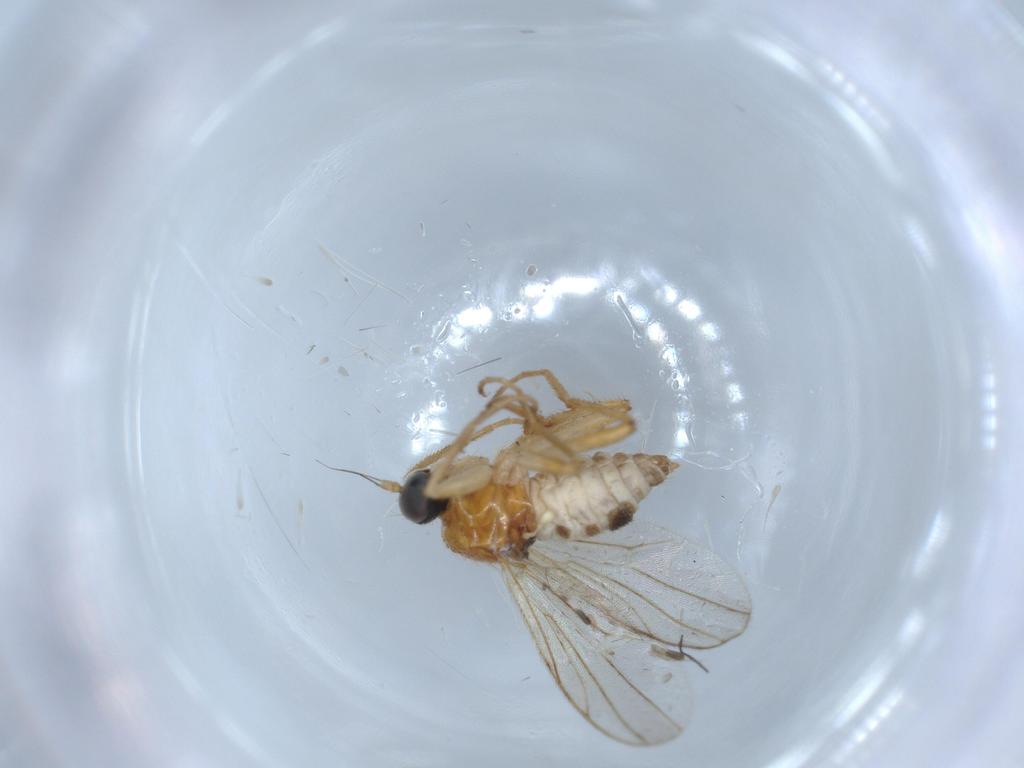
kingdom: Animalia
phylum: Arthropoda
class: Insecta
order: Diptera
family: Hybotidae
